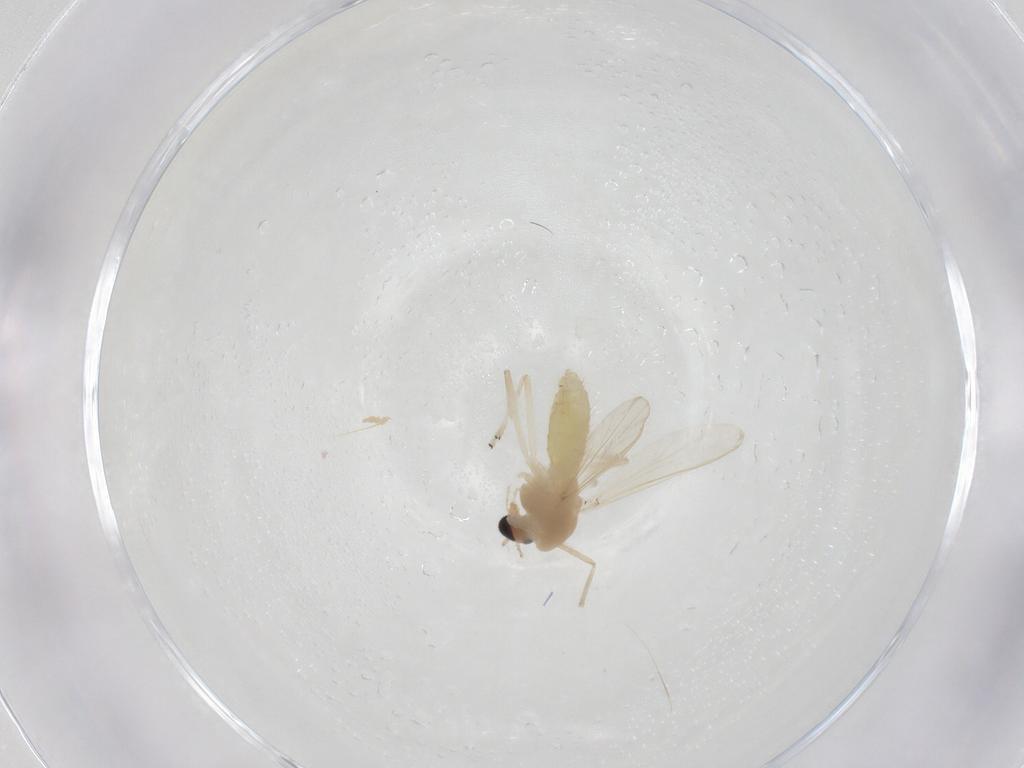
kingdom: Animalia
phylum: Arthropoda
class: Insecta
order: Diptera
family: Chironomidae
